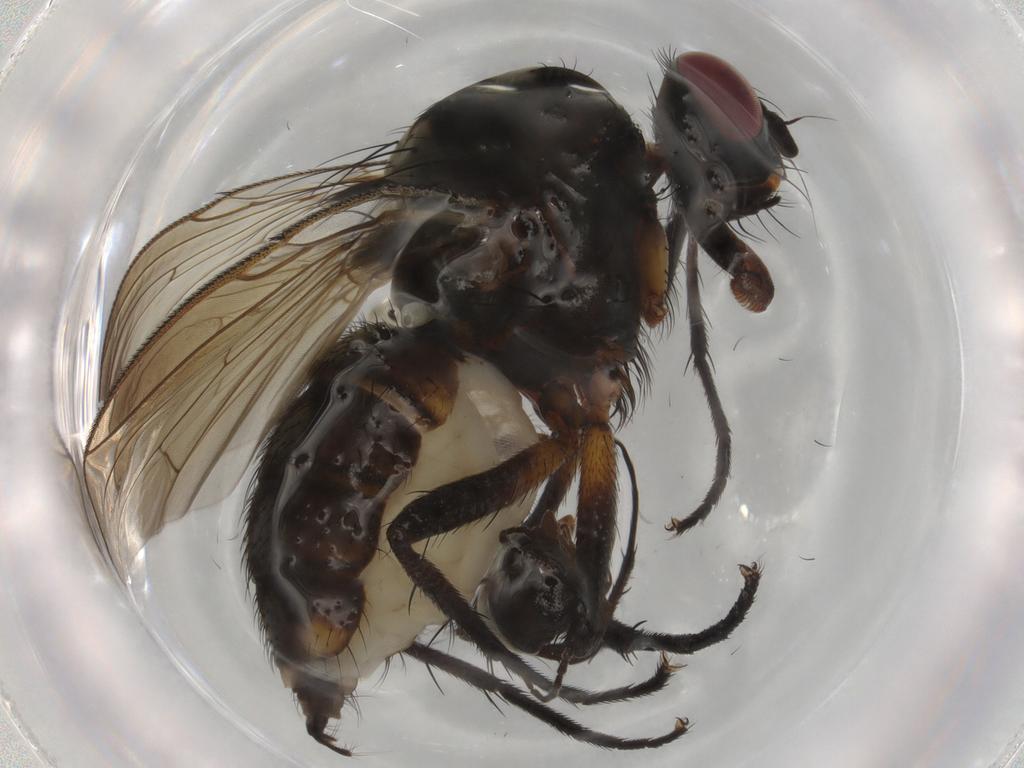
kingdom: Animalia
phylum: Arthropoda
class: Insecta
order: Diptera
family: Anthomyiidae
